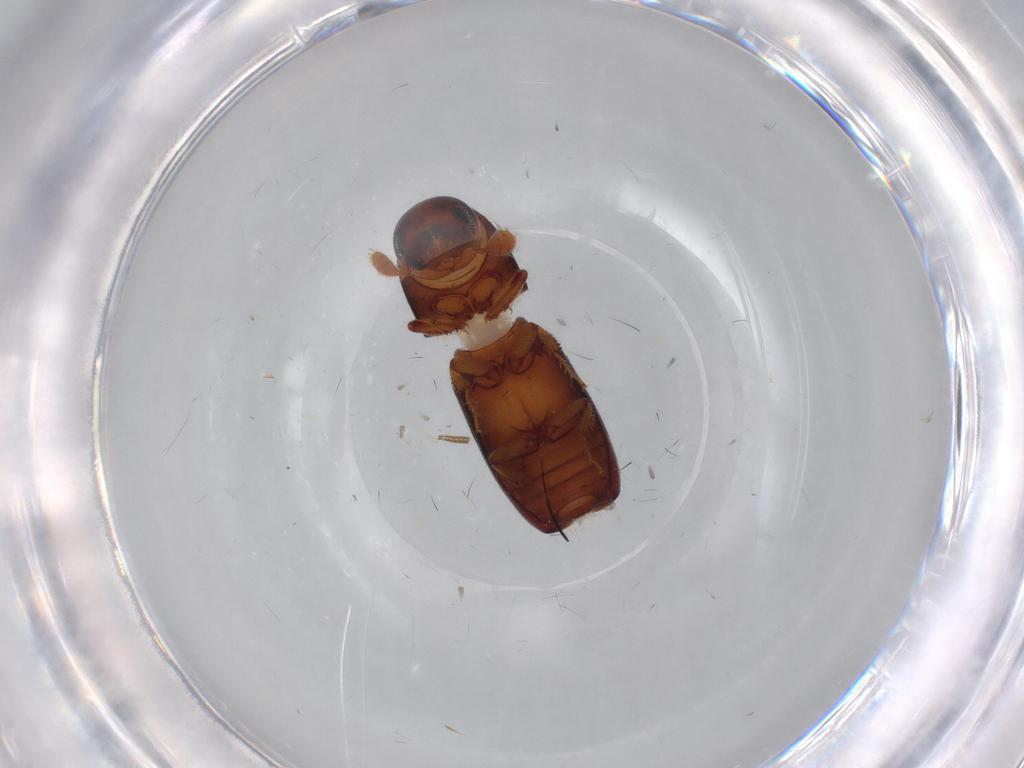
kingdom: Animalia
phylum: Arthropoda
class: Insecta
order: Coleoptera
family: Curculionidae
